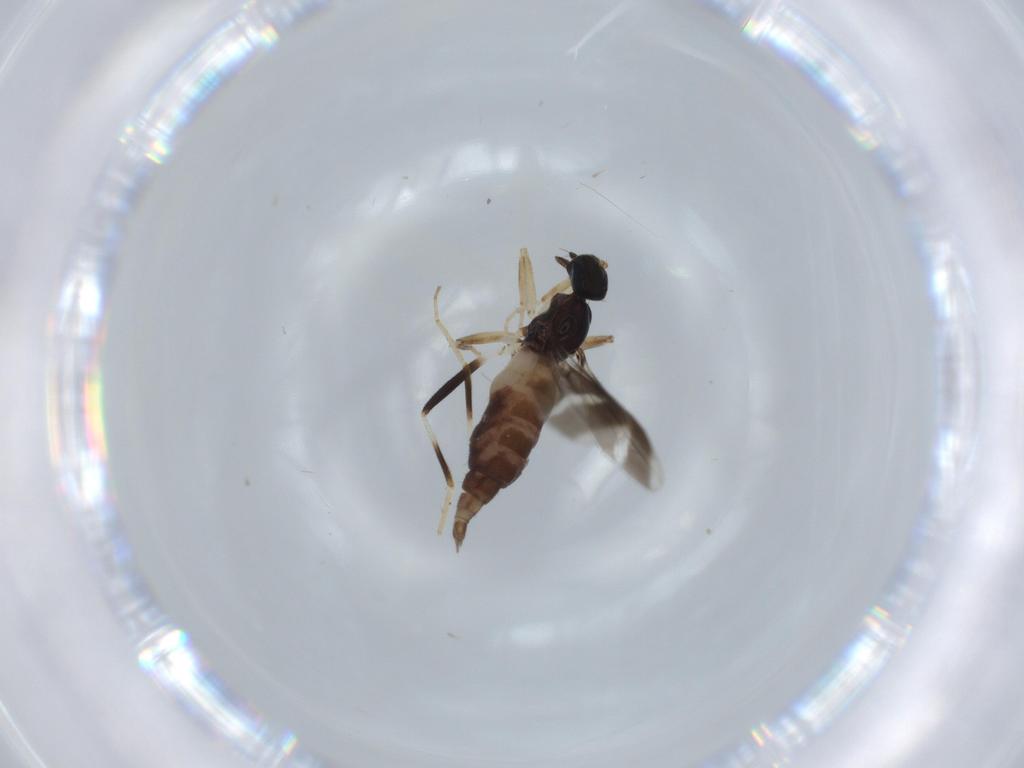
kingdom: Animalia
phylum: Arthropoda
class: Insecta
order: Diptera
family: Hybotidae
